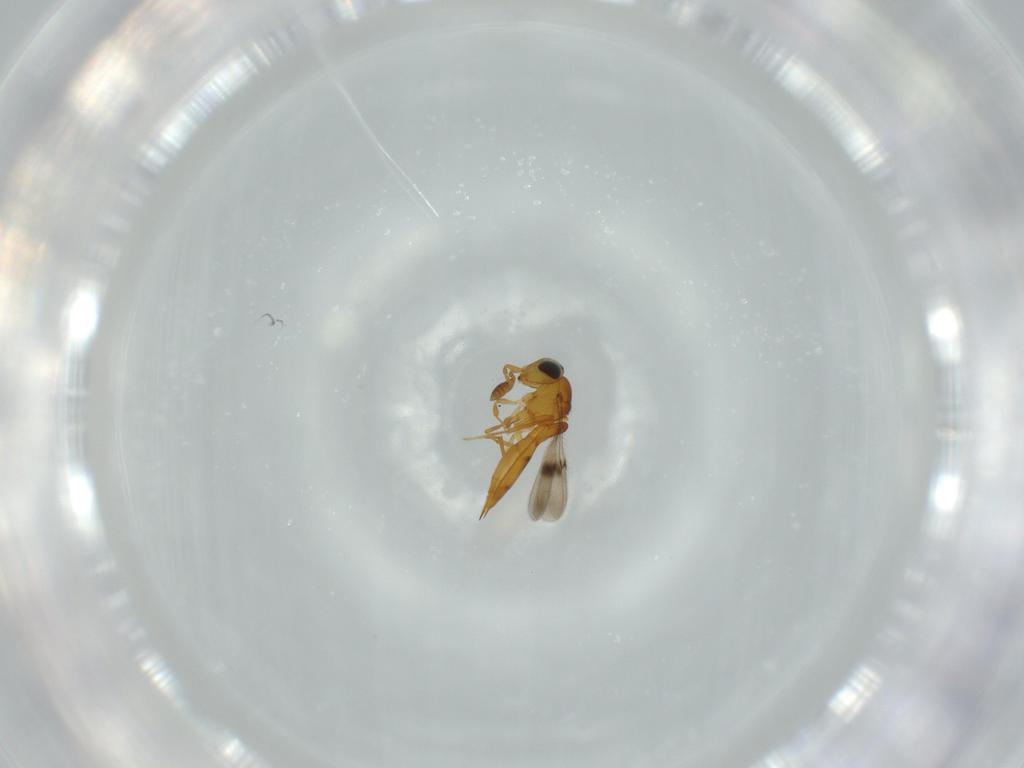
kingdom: Animalia
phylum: Arthropoda
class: Insecta
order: Hymenoptera
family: Scelionidae
